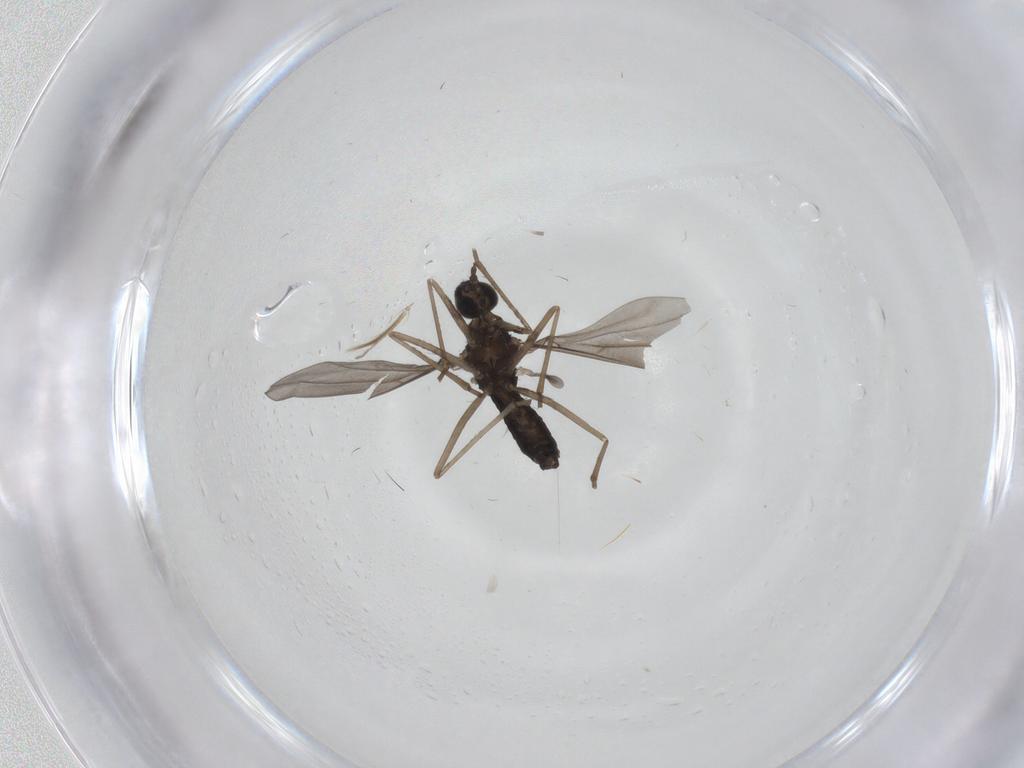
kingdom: Animalia
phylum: Arthropoda
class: Insecta
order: Diptera
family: Cecidomyiidae
